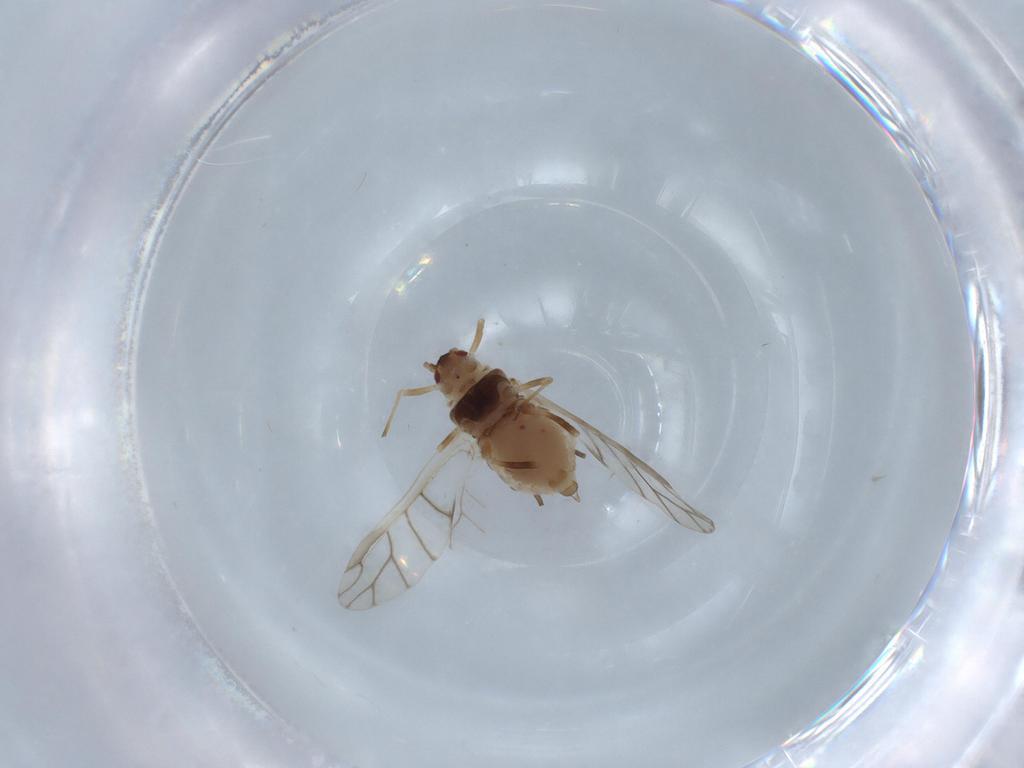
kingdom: Animalia
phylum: Arthropoda
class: Insecta
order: Hemiptera
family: Aphididae
